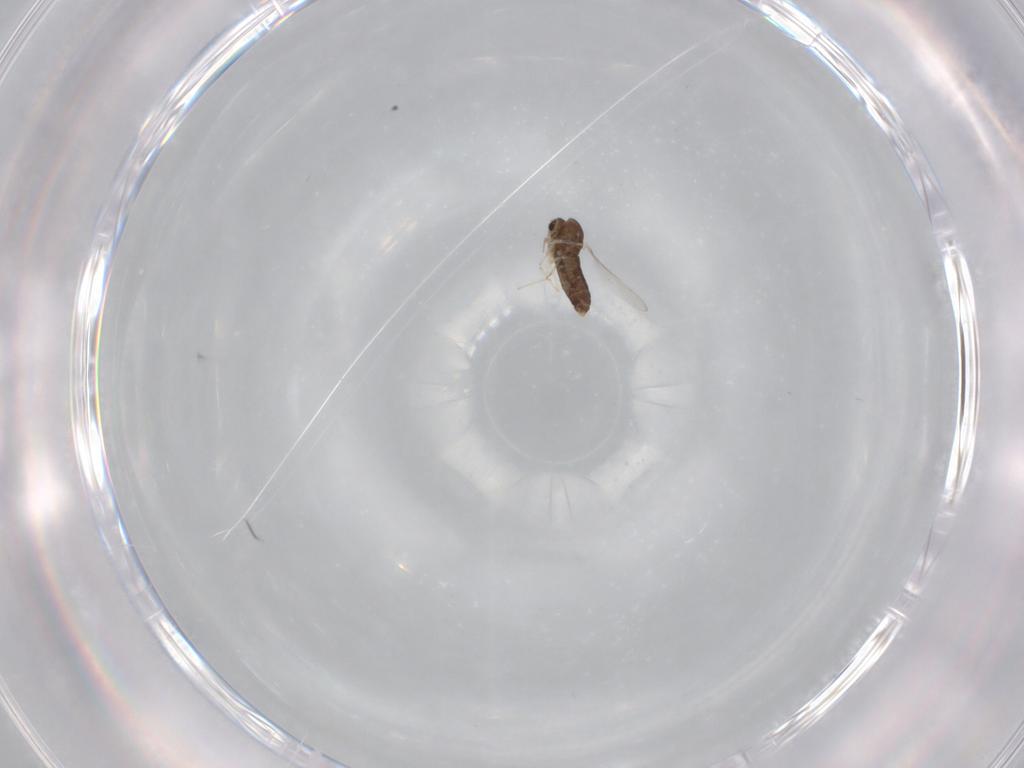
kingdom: Animalia
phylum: Arthropoda
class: Insecta
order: Diptera
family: Chironomidae
